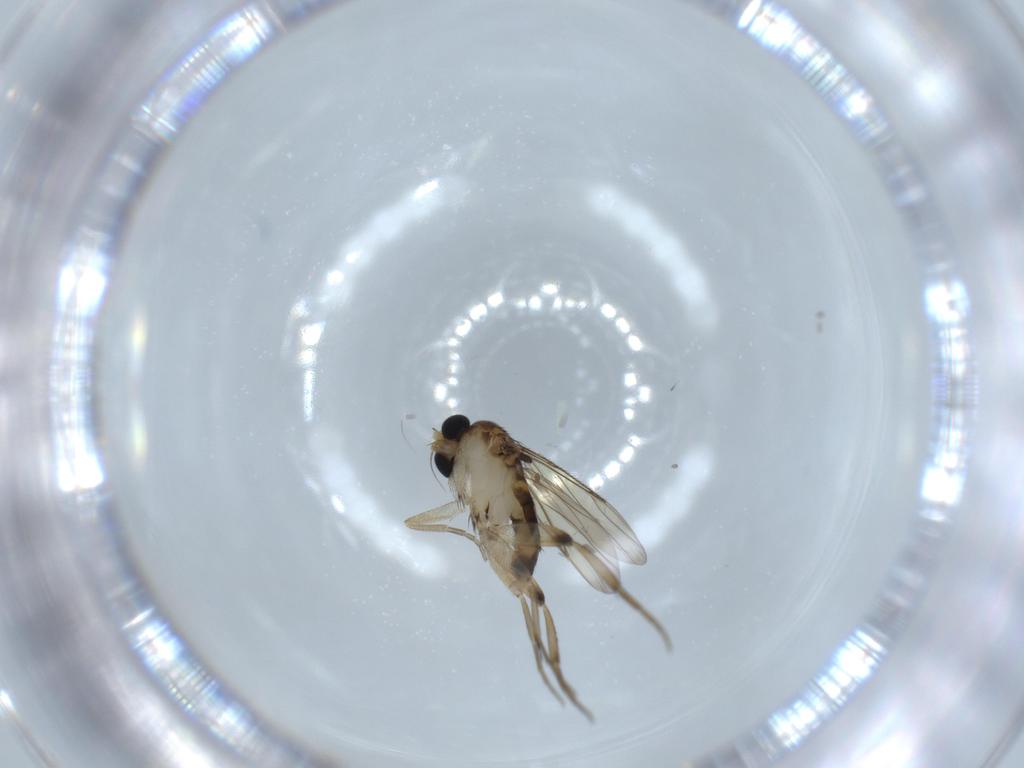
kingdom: Animalia
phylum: Arthropoda
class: Insecta
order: Diptera
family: Phoridae
